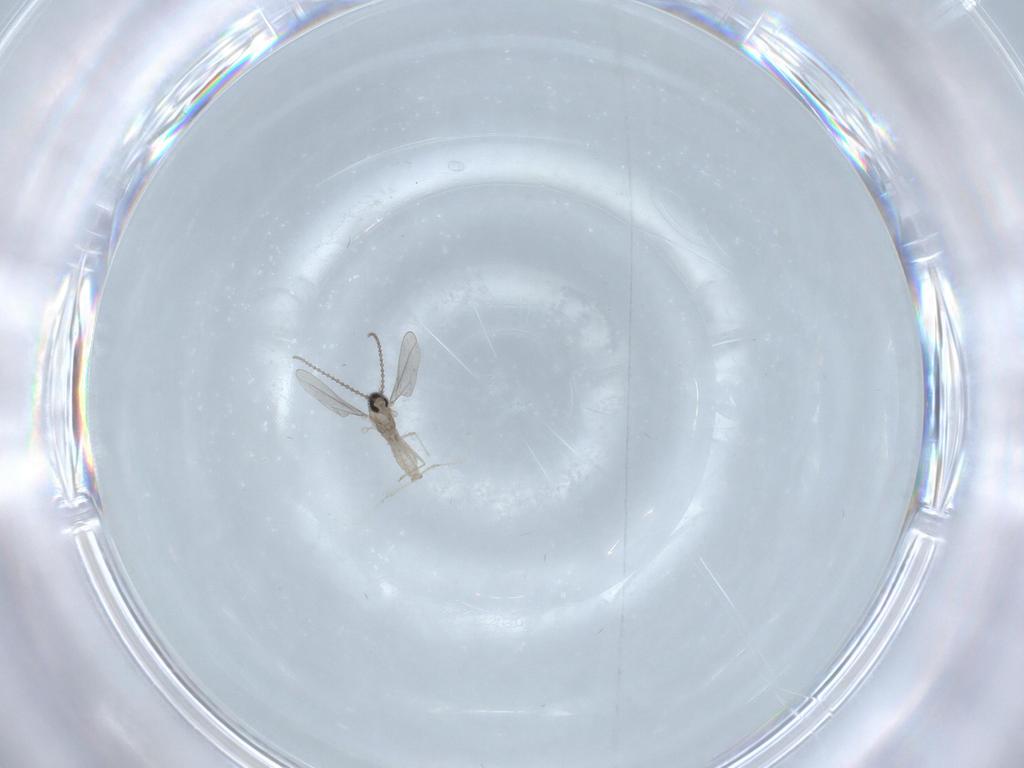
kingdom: Animalia
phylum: Arthropoda
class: Insecta
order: Diptera
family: Cecidomyiidae
